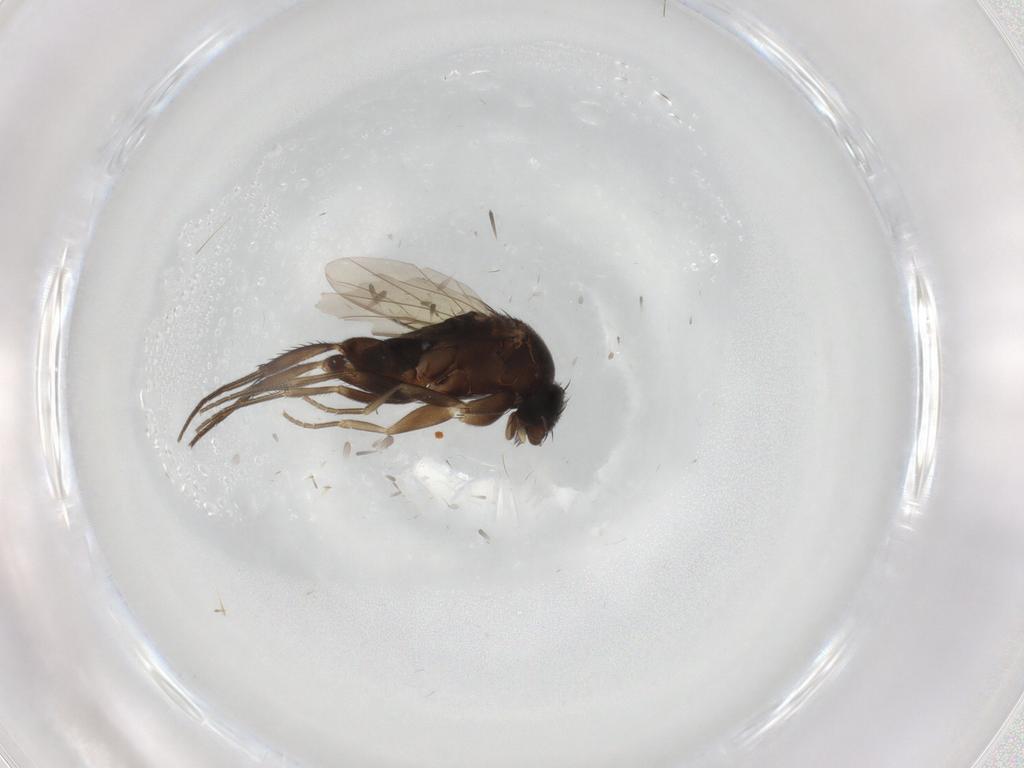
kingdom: Animalia
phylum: Arthropoda
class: Insecta
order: Diptera
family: Phoridae
